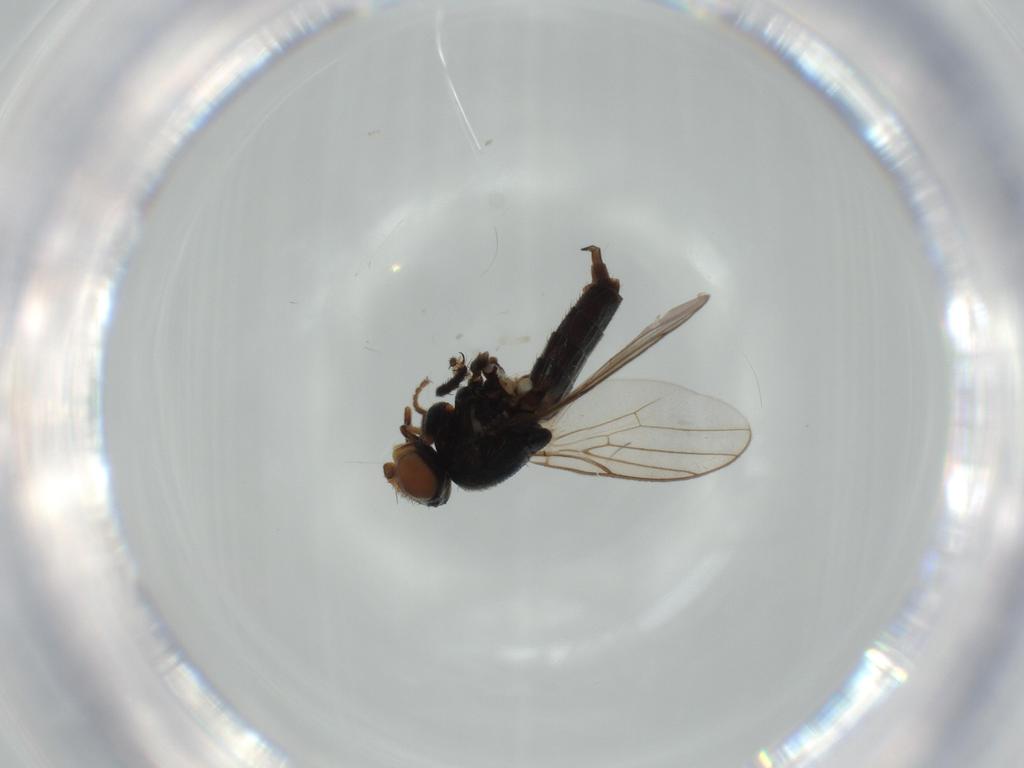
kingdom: Animalia
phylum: Arthropoda
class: Insecta
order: Diptera
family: Chloropidae
